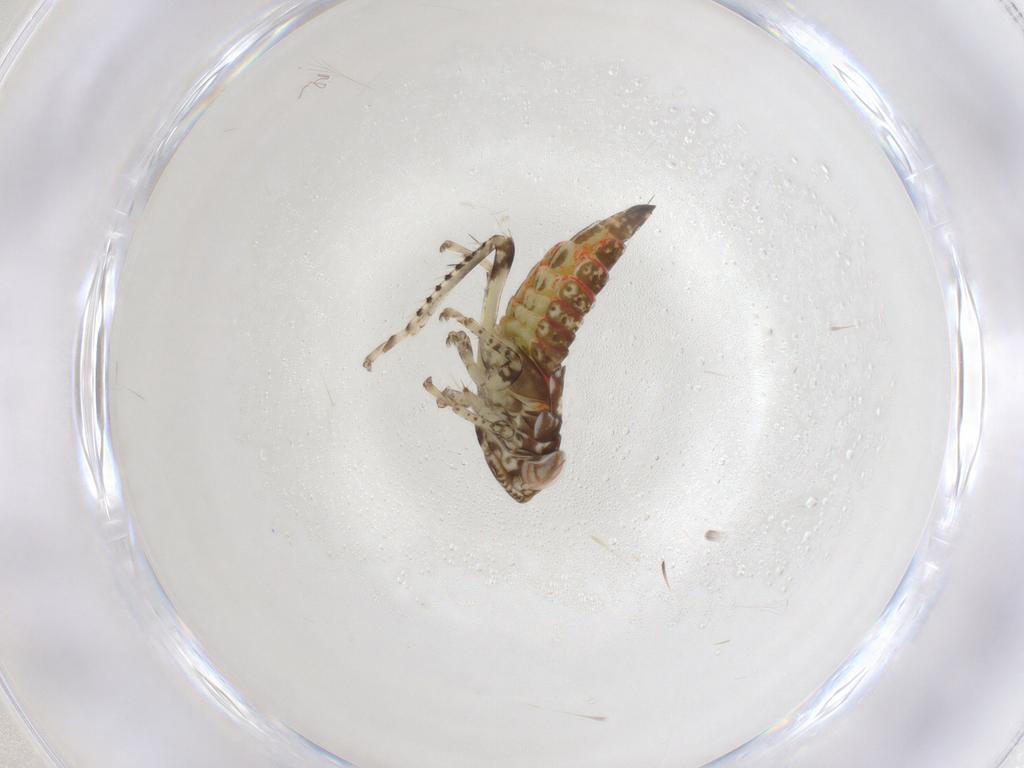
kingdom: Animalia
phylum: Arthropoda
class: Insecta
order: Hemiptera
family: Cicadellidae
